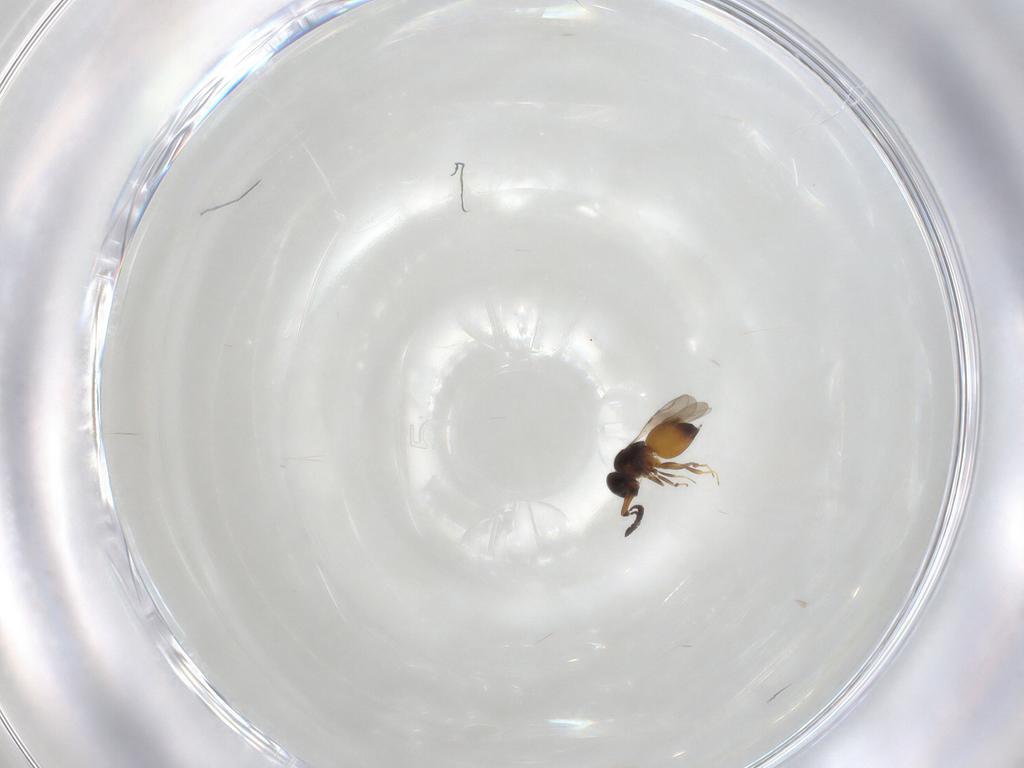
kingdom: Animalia
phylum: Arthropoda
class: Insecta
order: Hymenoptera
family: Ceraphronidae
